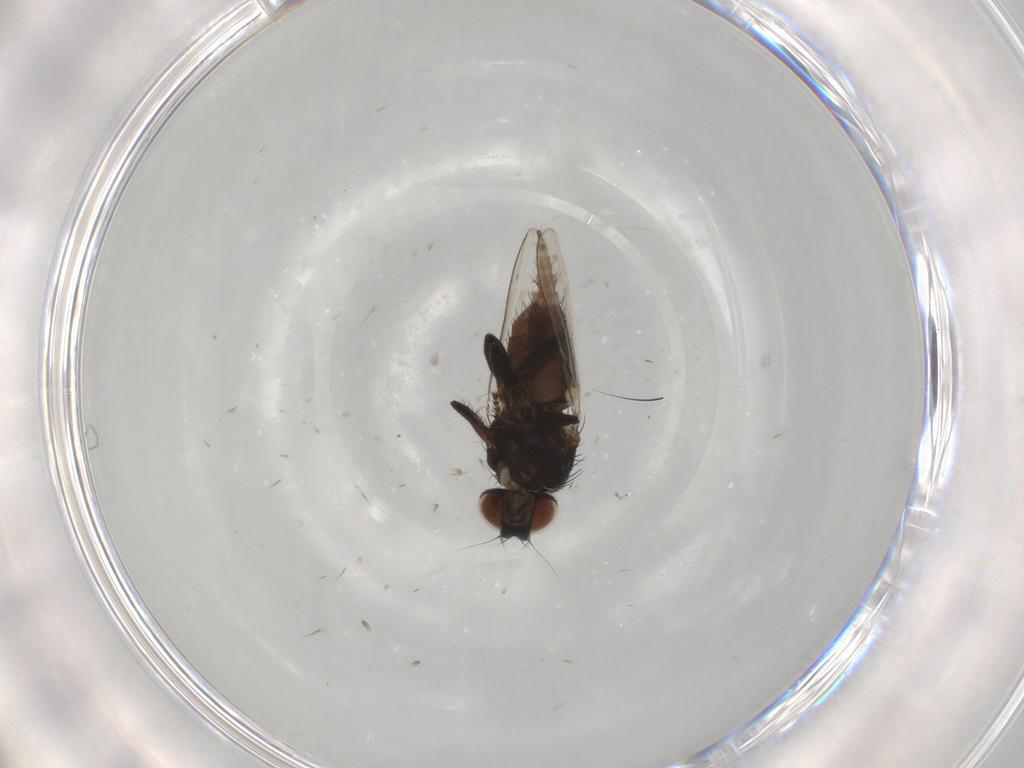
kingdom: Animalia
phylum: Arthropoda
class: Insecta
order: Diptera
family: Milichiidae
